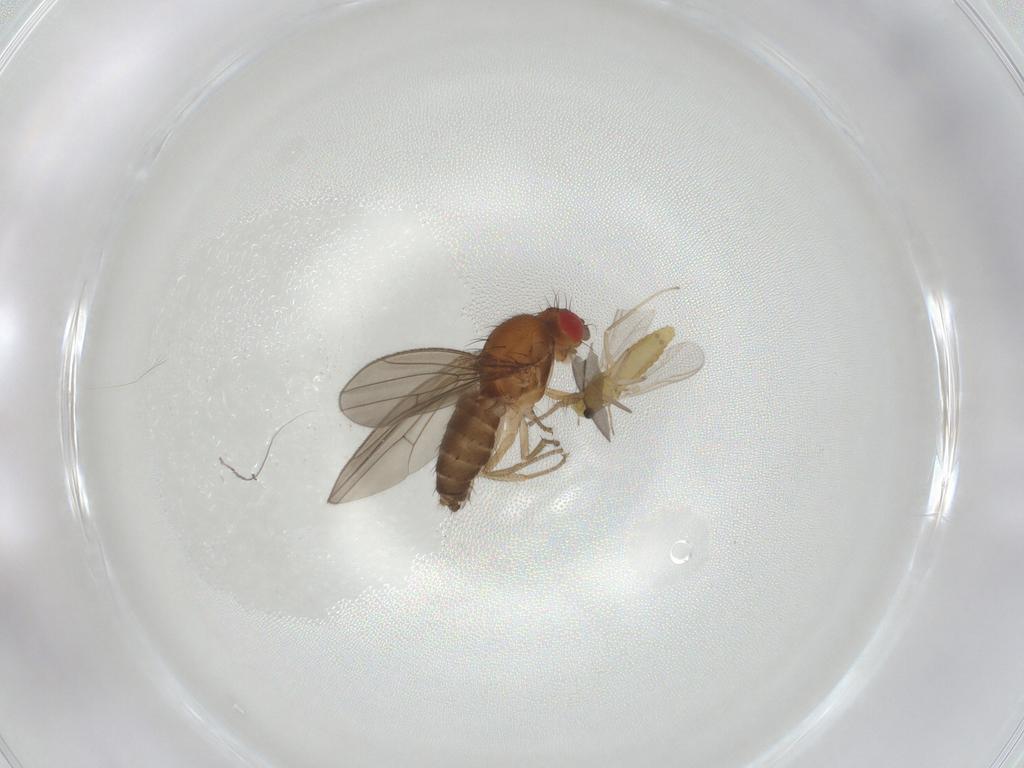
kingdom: Animalia
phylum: Arthropoda
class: Insecta
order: Diptera
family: Drosophilidae
